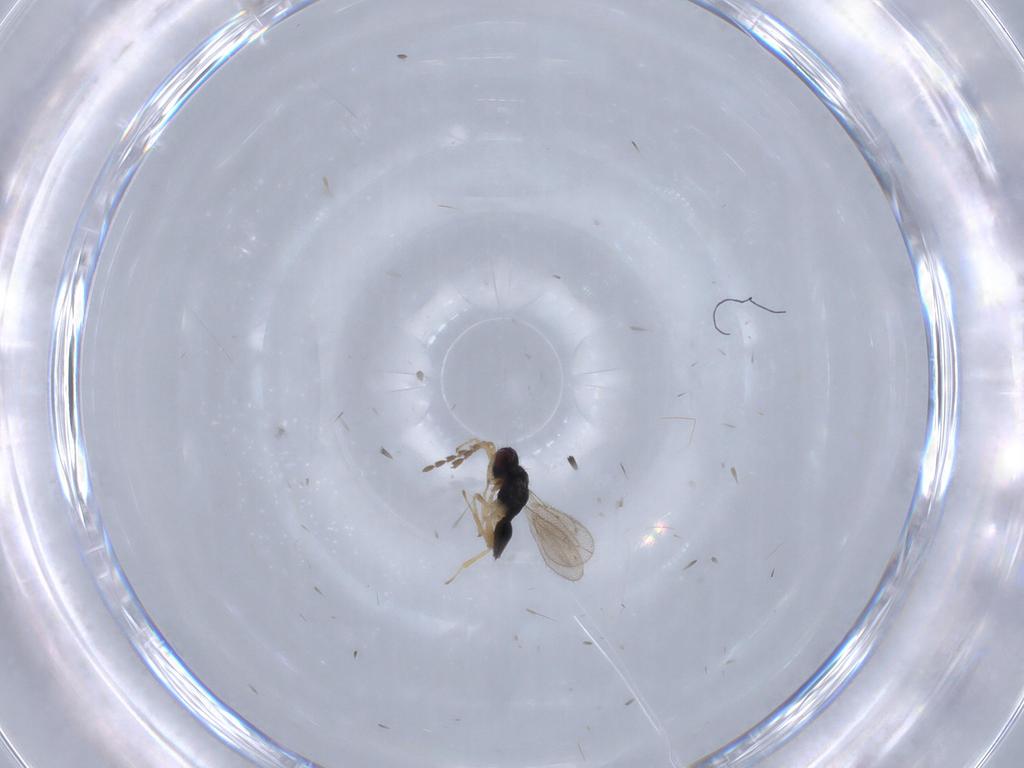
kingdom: Animalia
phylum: Arthropoda
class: Insecta
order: Hymenoptera
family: Eulophidae
